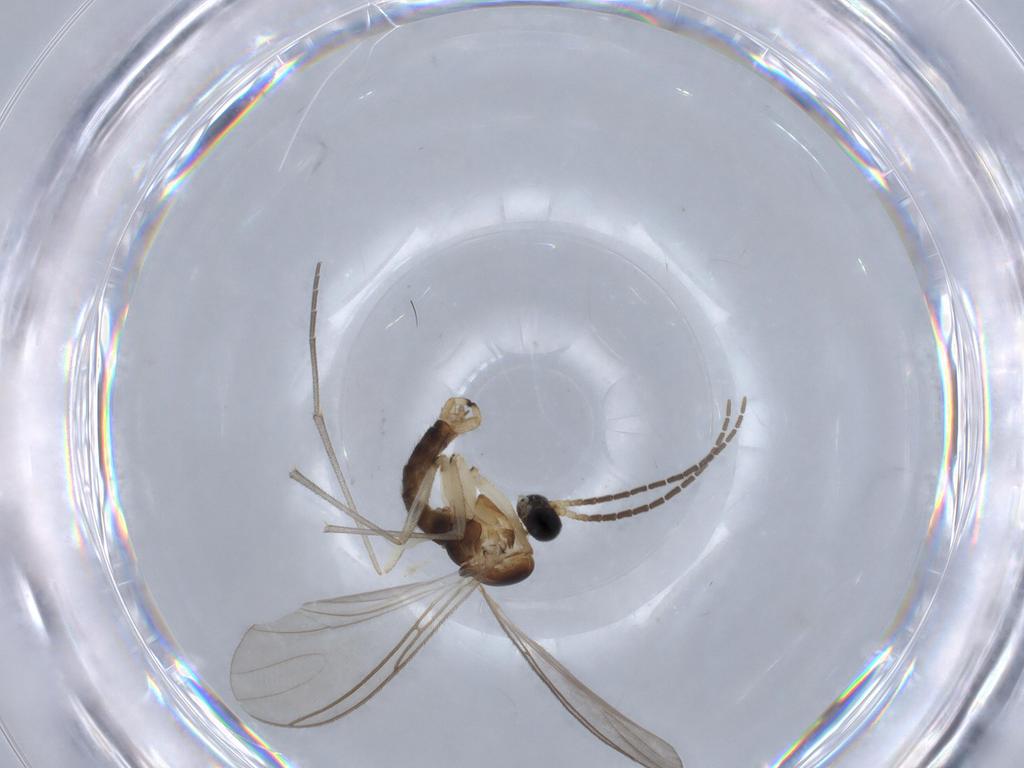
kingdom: Animalia
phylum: Arthropoda
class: Insecta
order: Diptera
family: Sciaridae
